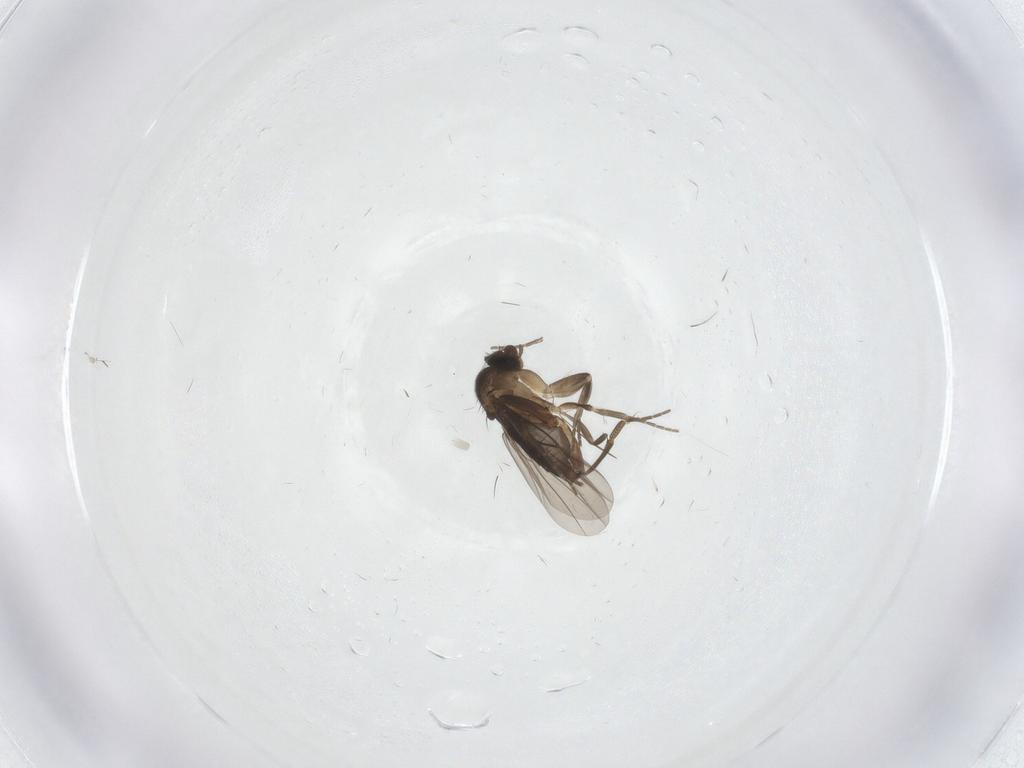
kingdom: Animalia
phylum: Arthropoda
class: Insecta
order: Diptera
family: Phoridae
